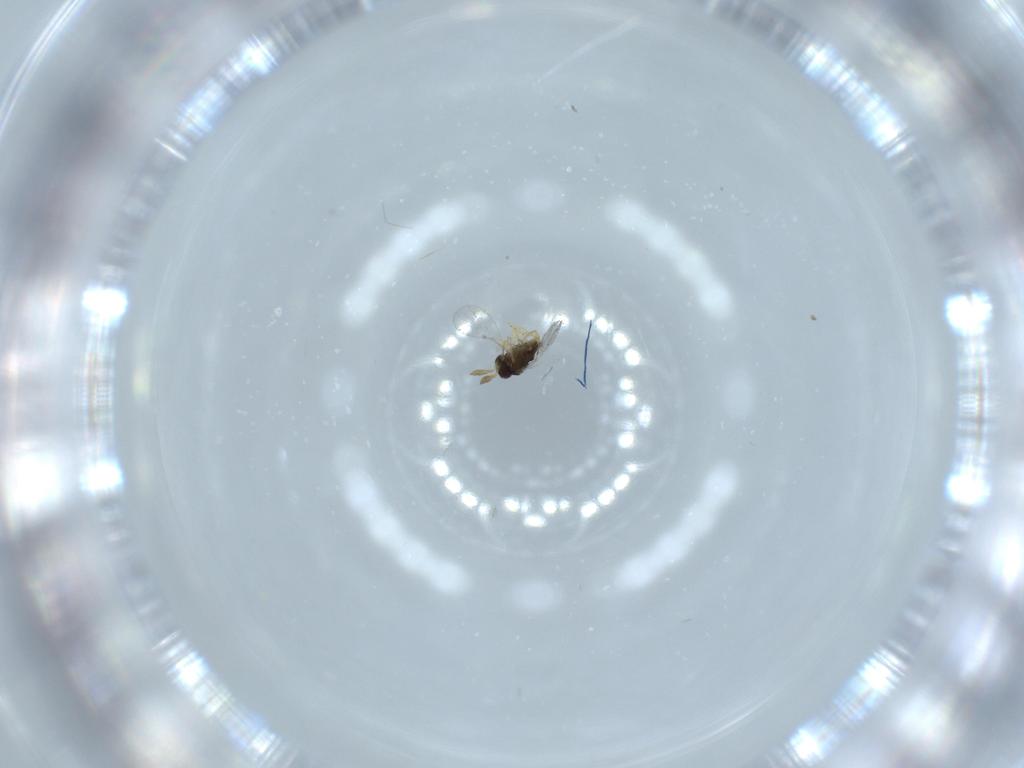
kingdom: Animalia
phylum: Arthropoda
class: Insecta
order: Hymenoptera
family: Encyrtidae
